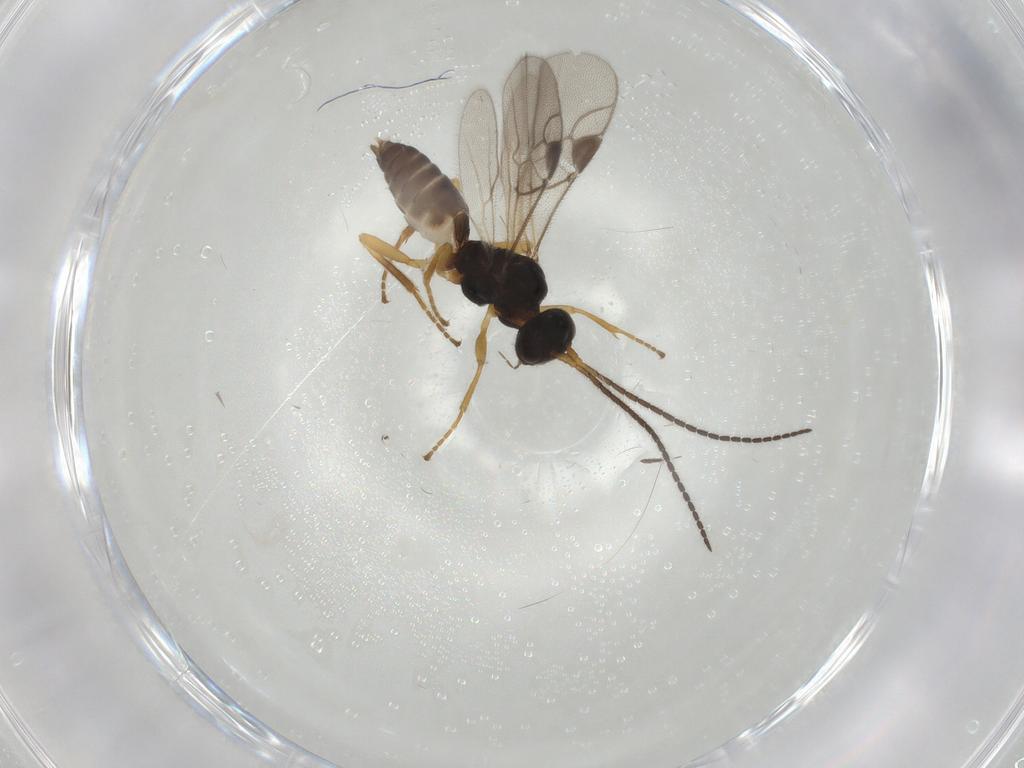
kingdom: Animalia
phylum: Arthropoda
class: Insecta
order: Hymenoptera
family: Braconidae
